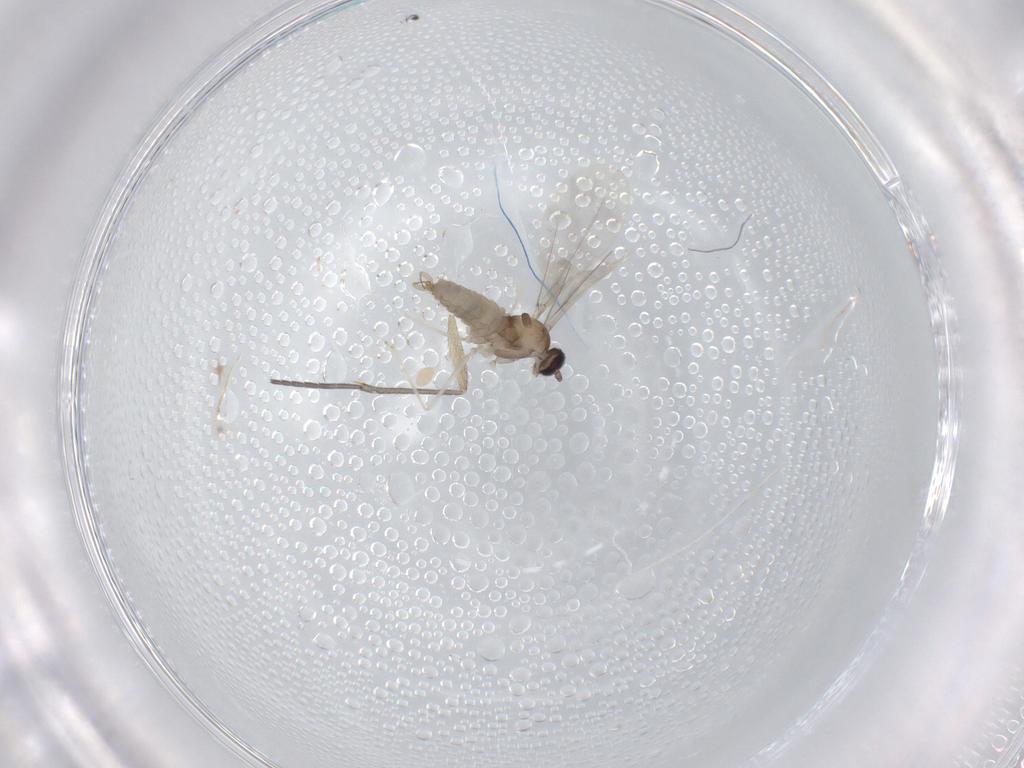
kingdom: Animalia
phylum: Arthropoda
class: Insecta
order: Diptera
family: Cecidomyiidae
